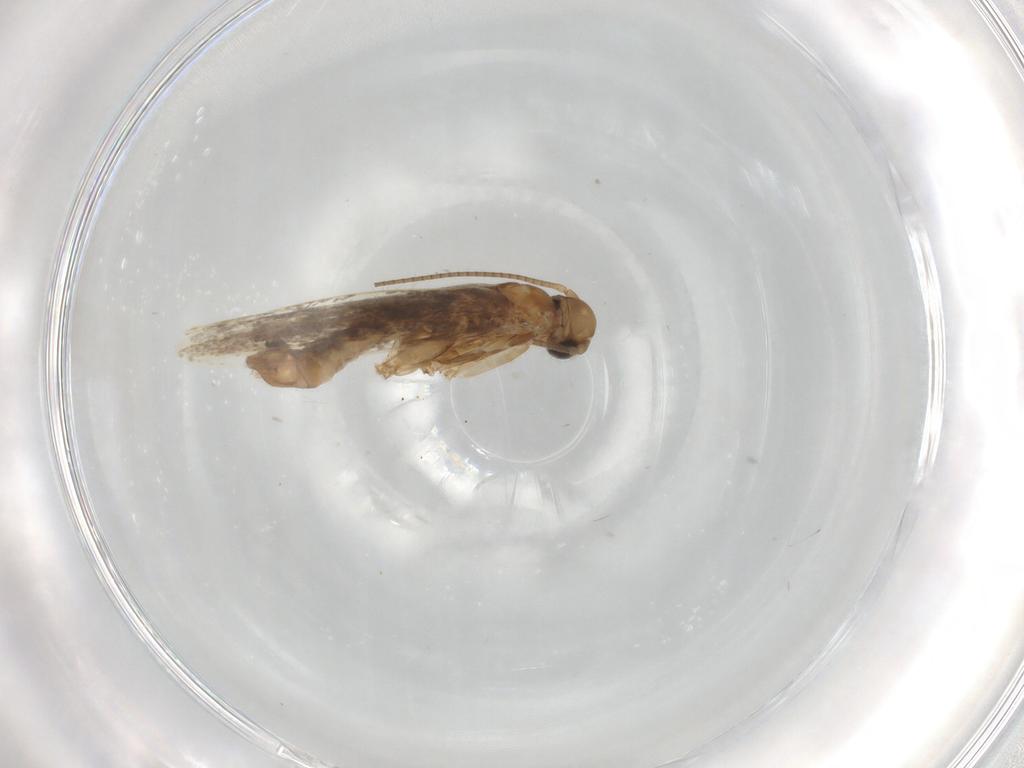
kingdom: Animalia
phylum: Arthropoda
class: Insecta
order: Lepidoptera
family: Gracillariidae
